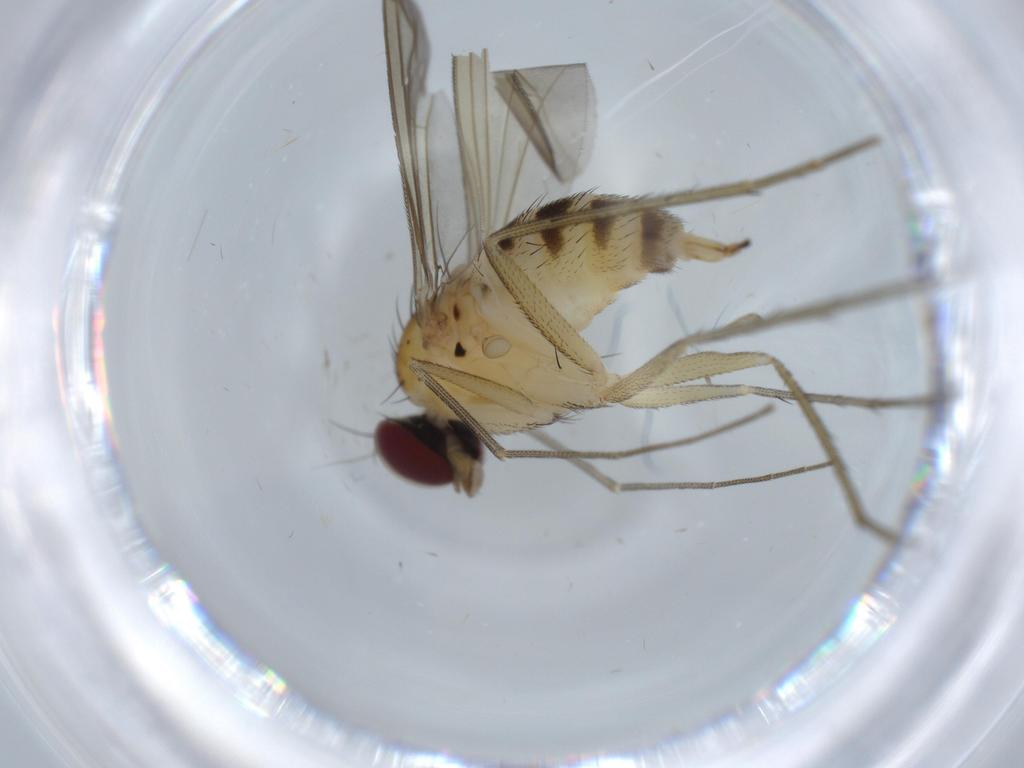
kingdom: Animalia
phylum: Arthropoda
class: Insecta
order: Diptera
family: Dolichopodidae
